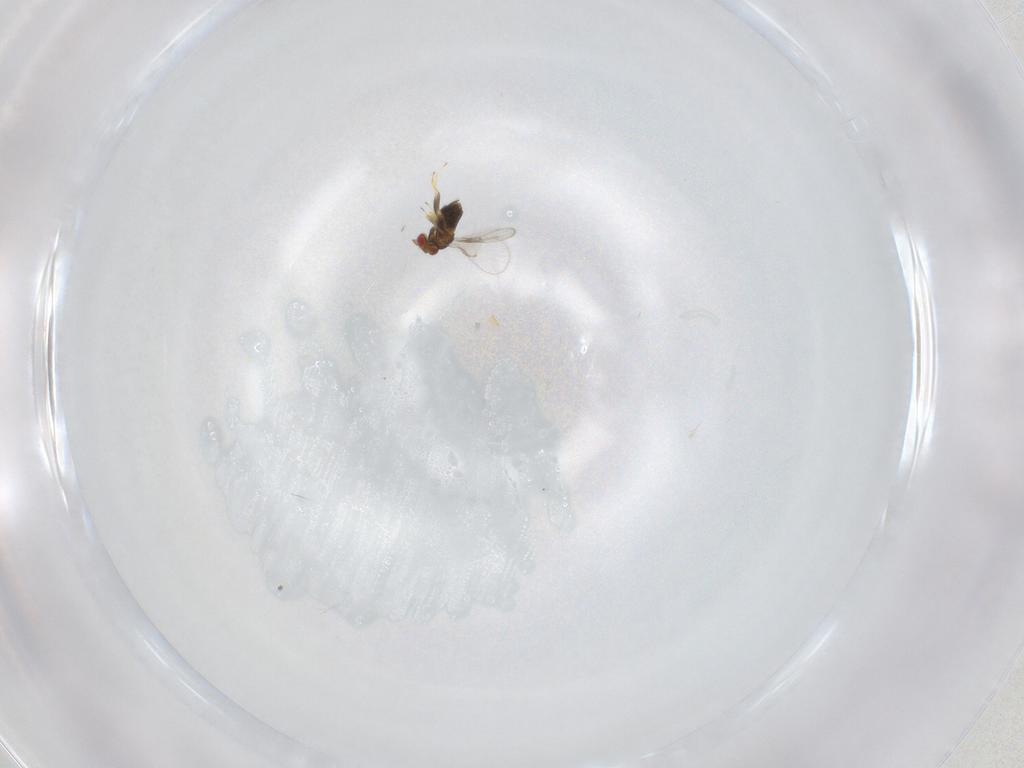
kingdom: Animalia
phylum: Arthropoda
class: Insecta
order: Hymenoptera
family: Trichogrammatidae
